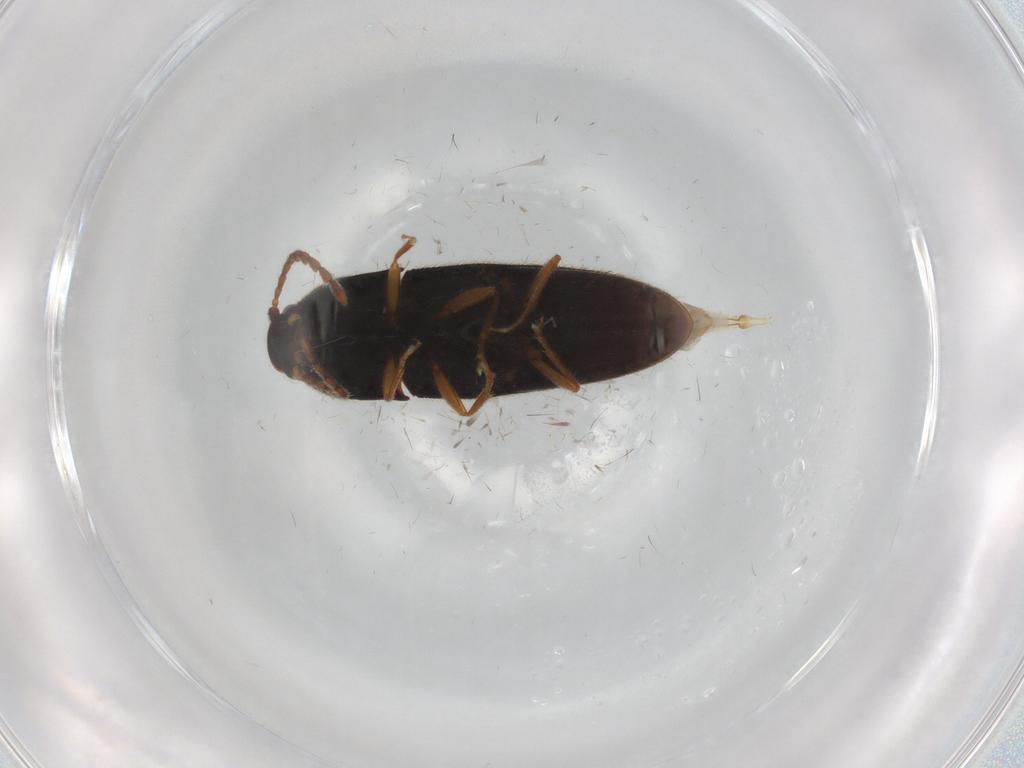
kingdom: Animalia
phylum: Arthropoda
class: Insecta
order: Coleoptera
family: Elateridae
